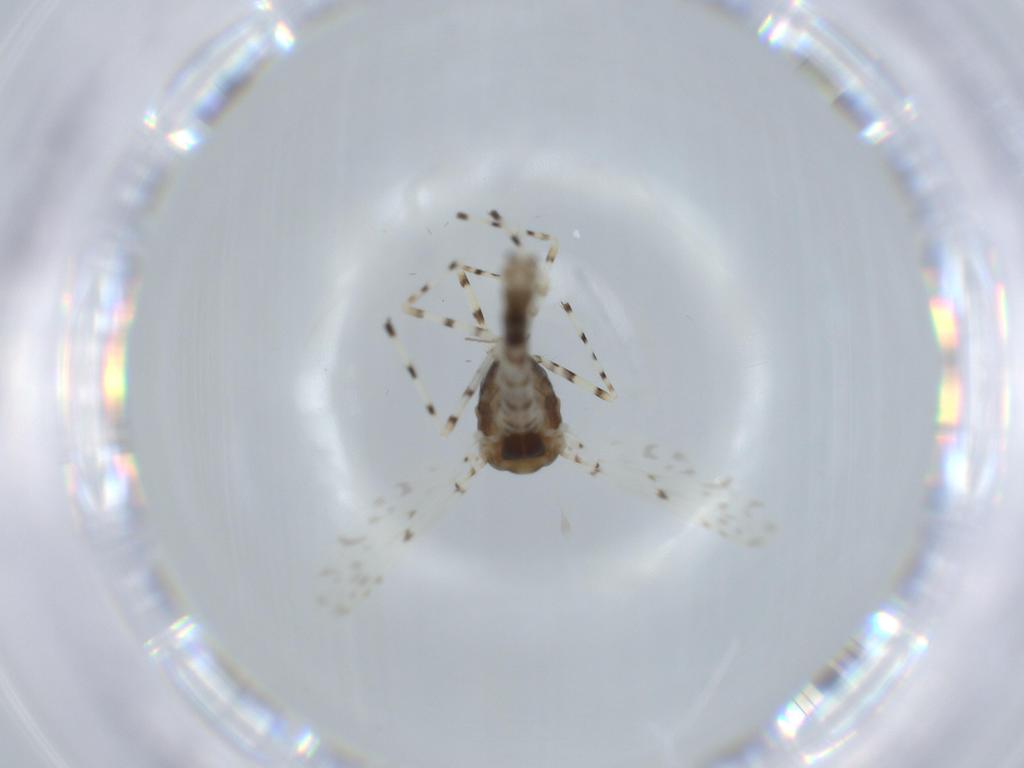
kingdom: Animalia
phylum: Arthropoda
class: Insecta
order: Diptera
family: Chironomidae
